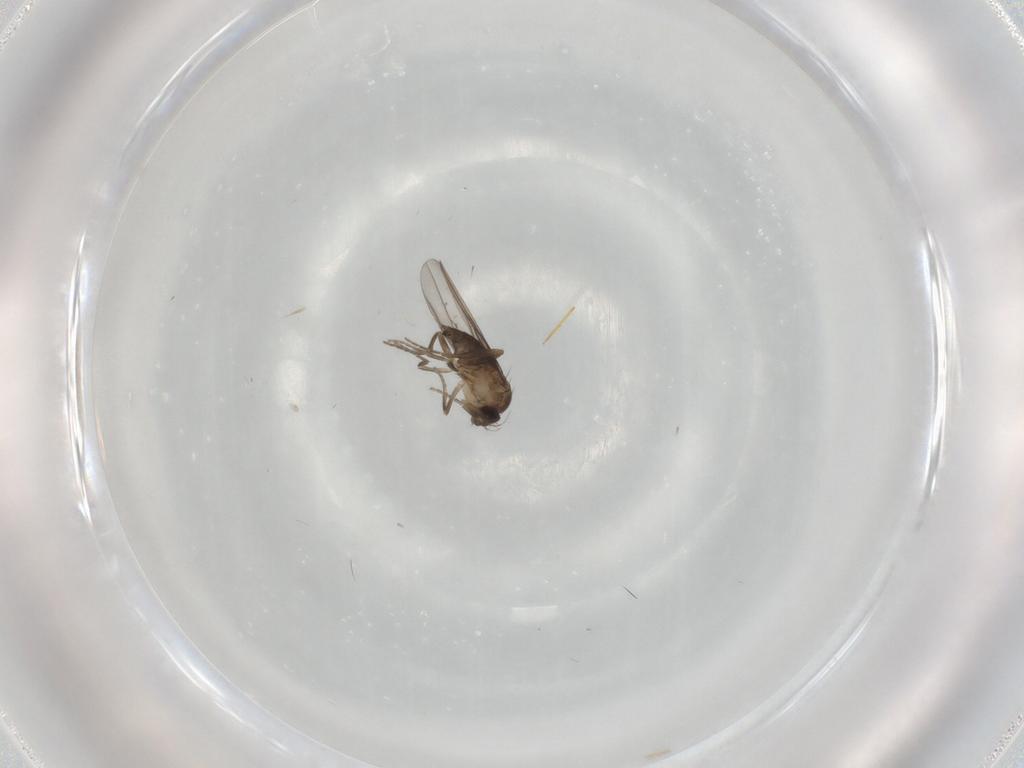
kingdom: Animalia
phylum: Arthropoda
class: Insecta
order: Diptera
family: Phoridae
